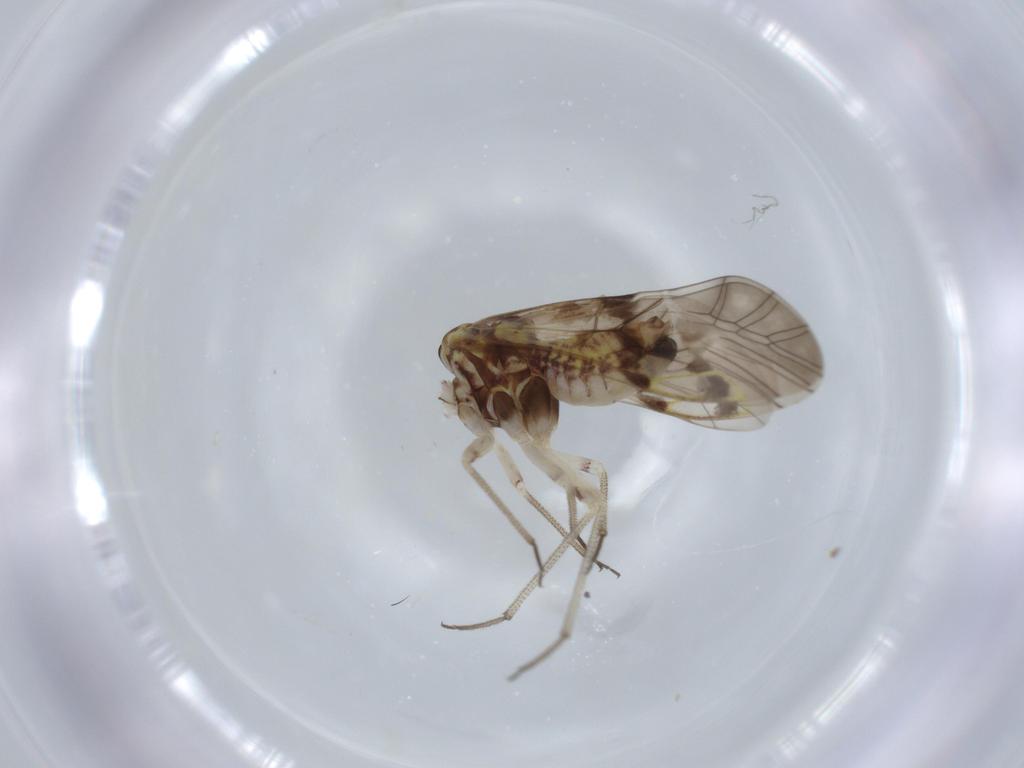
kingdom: Animalia
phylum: Arthropoda
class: Insecta
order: Psocodea
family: Psocidae
